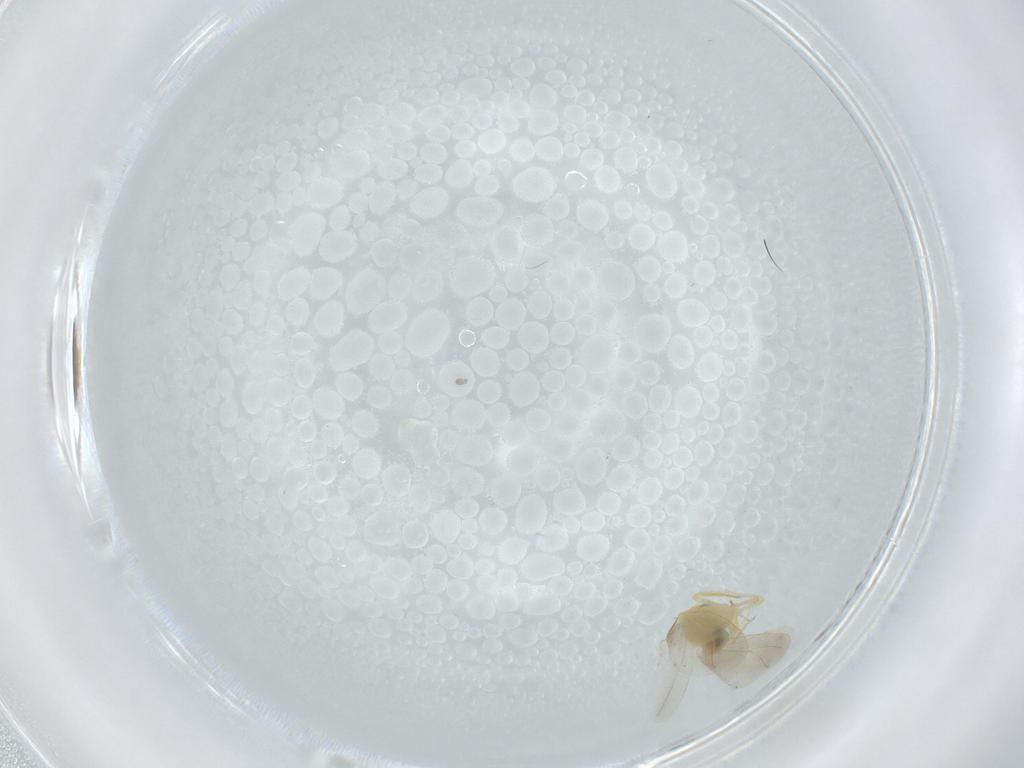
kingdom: Animalia
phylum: Arthropoda
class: Insecta
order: Hemiptera
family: Aleyrodidae
